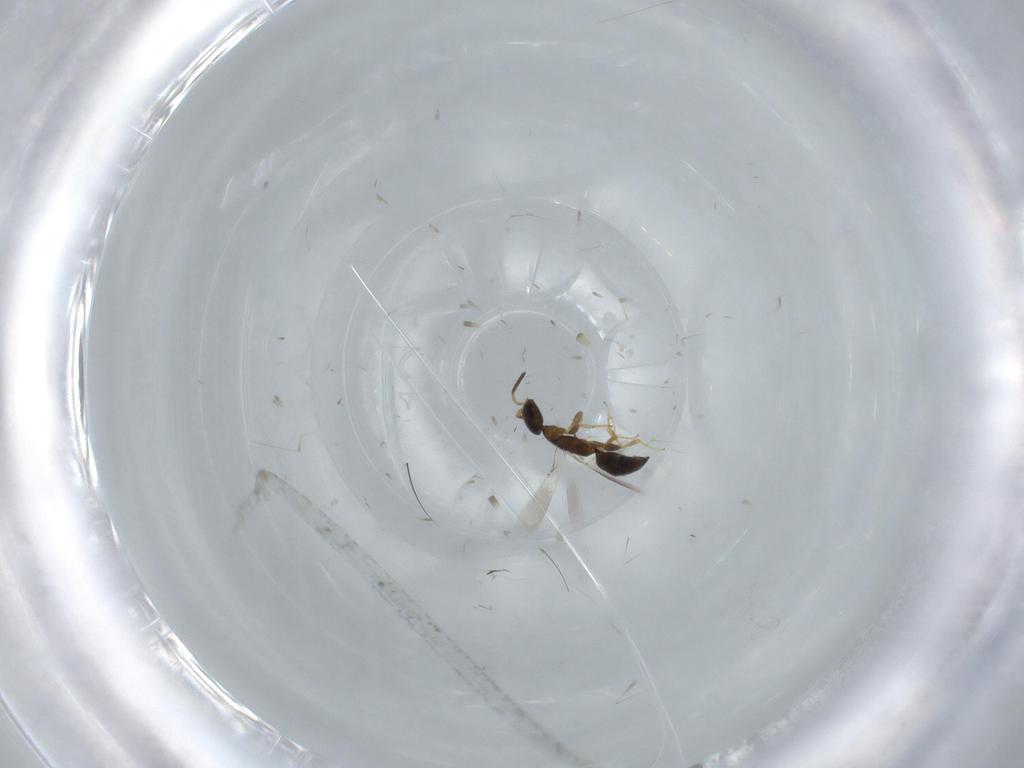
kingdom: Animalia
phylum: Arthropoda
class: Insecta
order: Hymenoptera
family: Bethylidae
